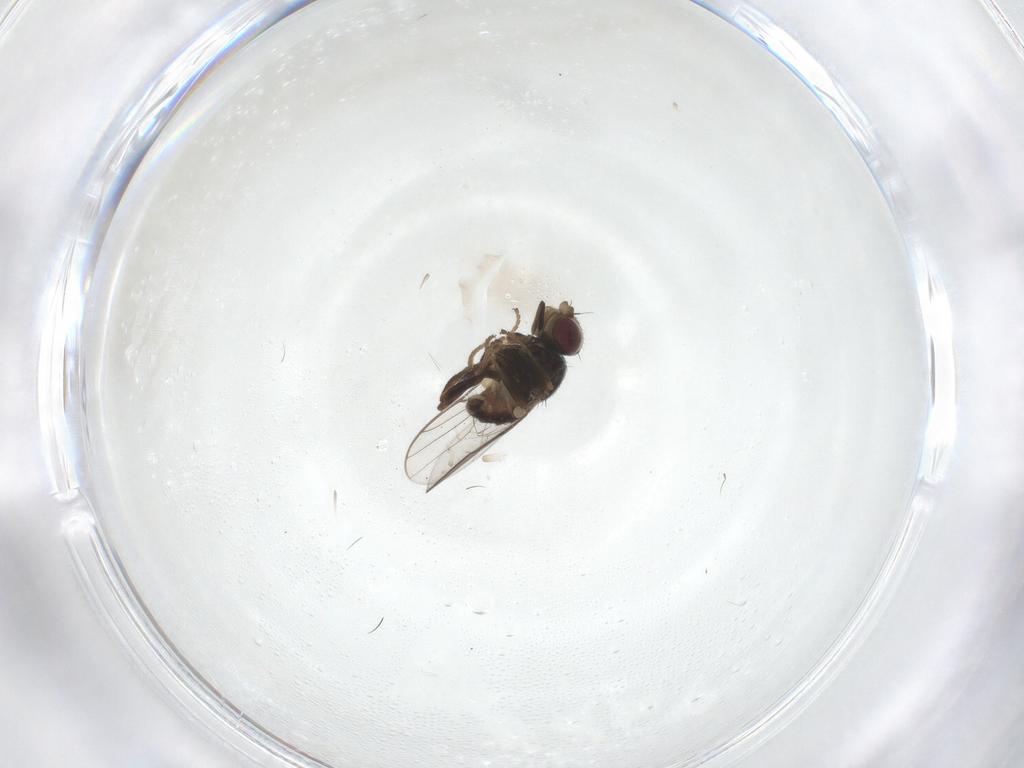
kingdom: Animalia
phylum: Arthropoda
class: Insecta
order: Diptera
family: Chloropidae
